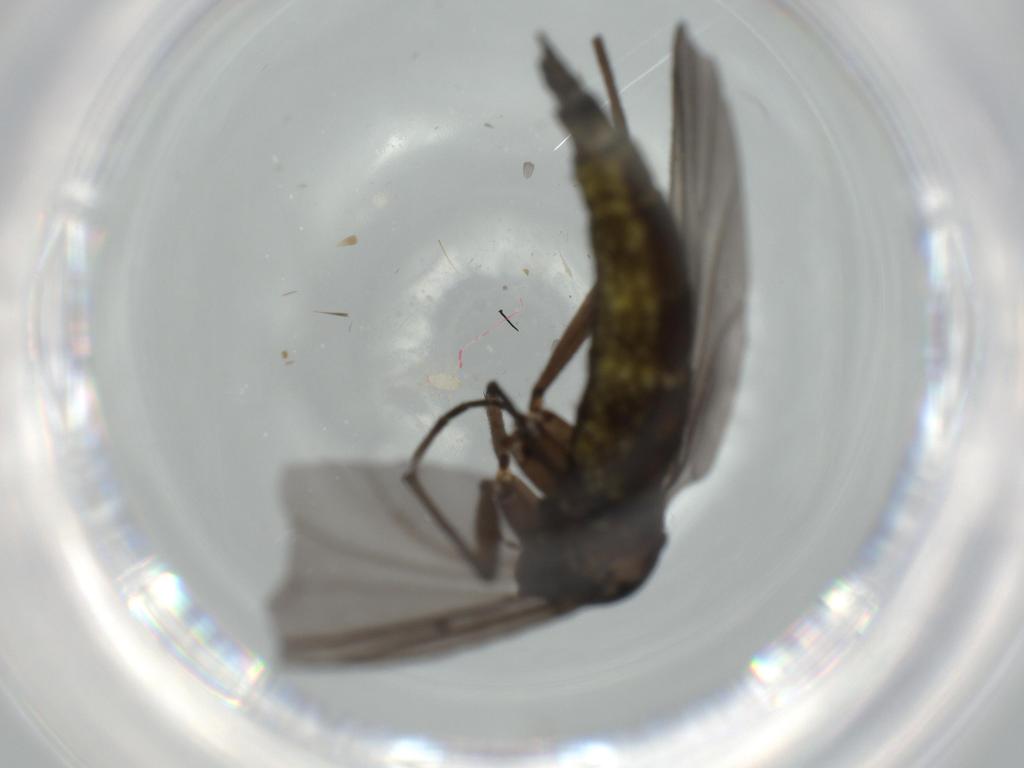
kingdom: Animalia
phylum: Arthropoda
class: Insecta
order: Diptera
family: Sciaridae
